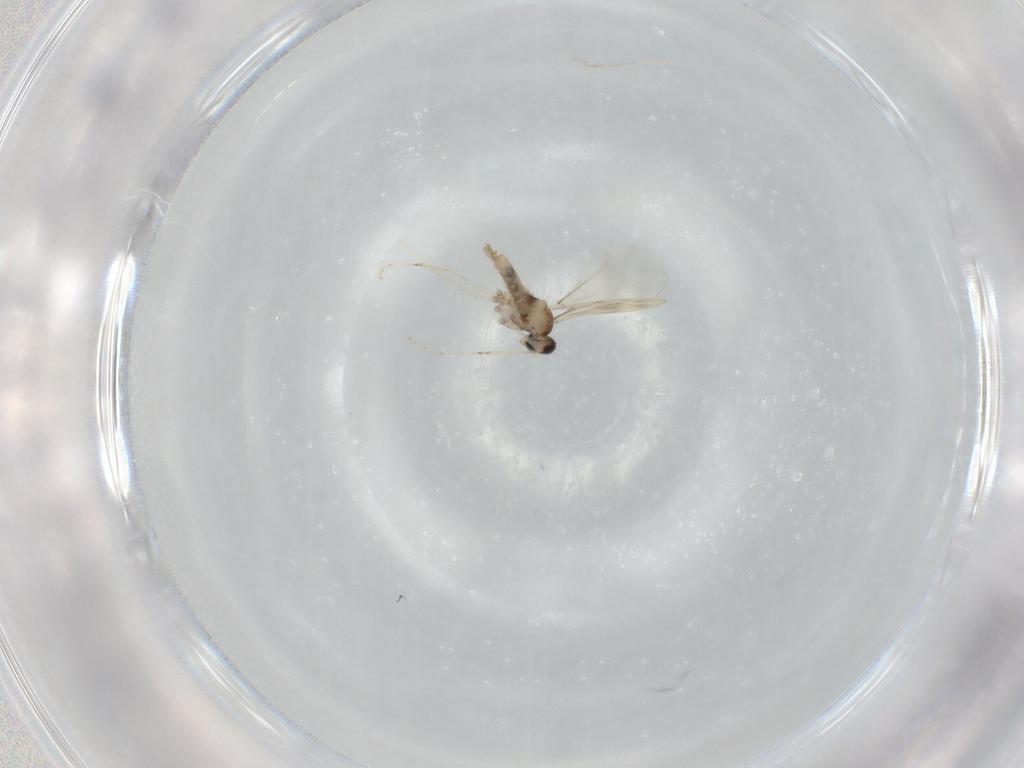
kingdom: Animalia
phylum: Arthropoda
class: Insecta
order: Diptera
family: Cecidomyiidae
